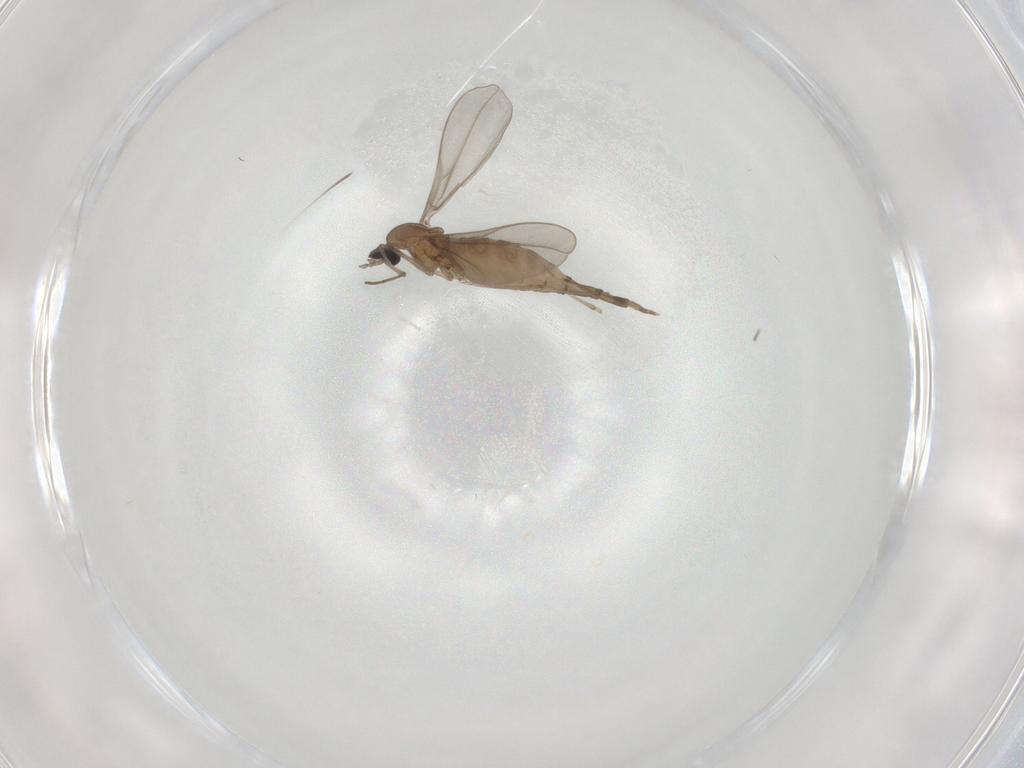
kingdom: Animalia
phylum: Arthropoda
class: Insecta
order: Diptera
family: Cecidomyiidae
